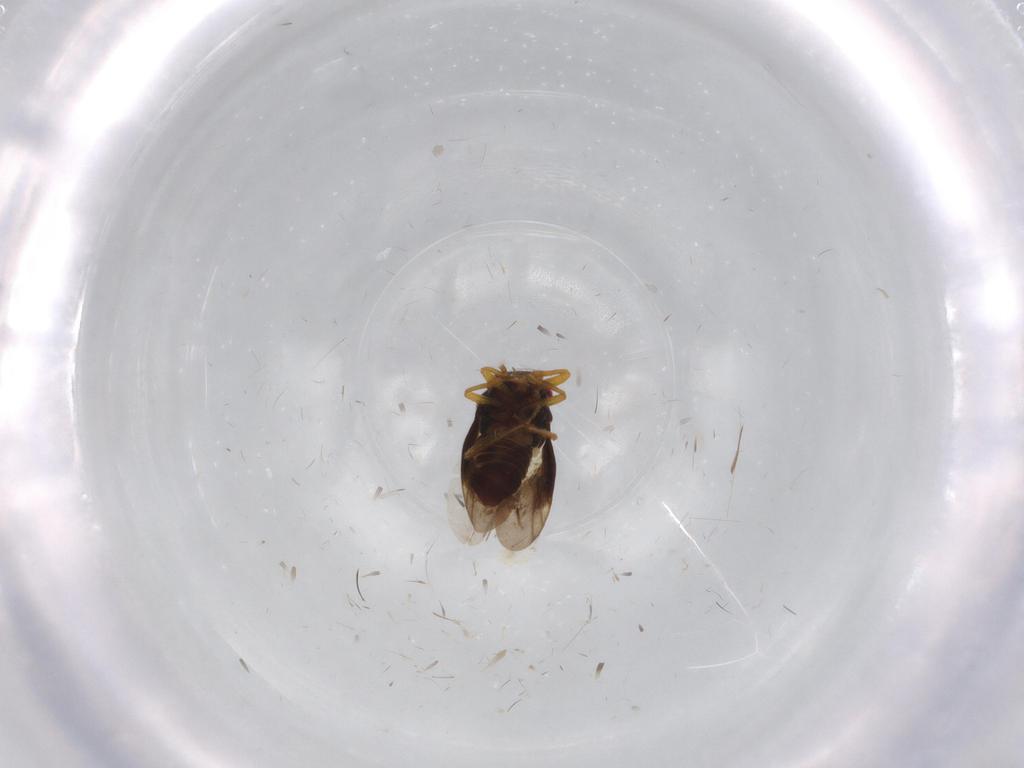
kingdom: Animalia
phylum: Arthropoda
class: Insecta
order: Hemiptera
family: Schizopteridae
